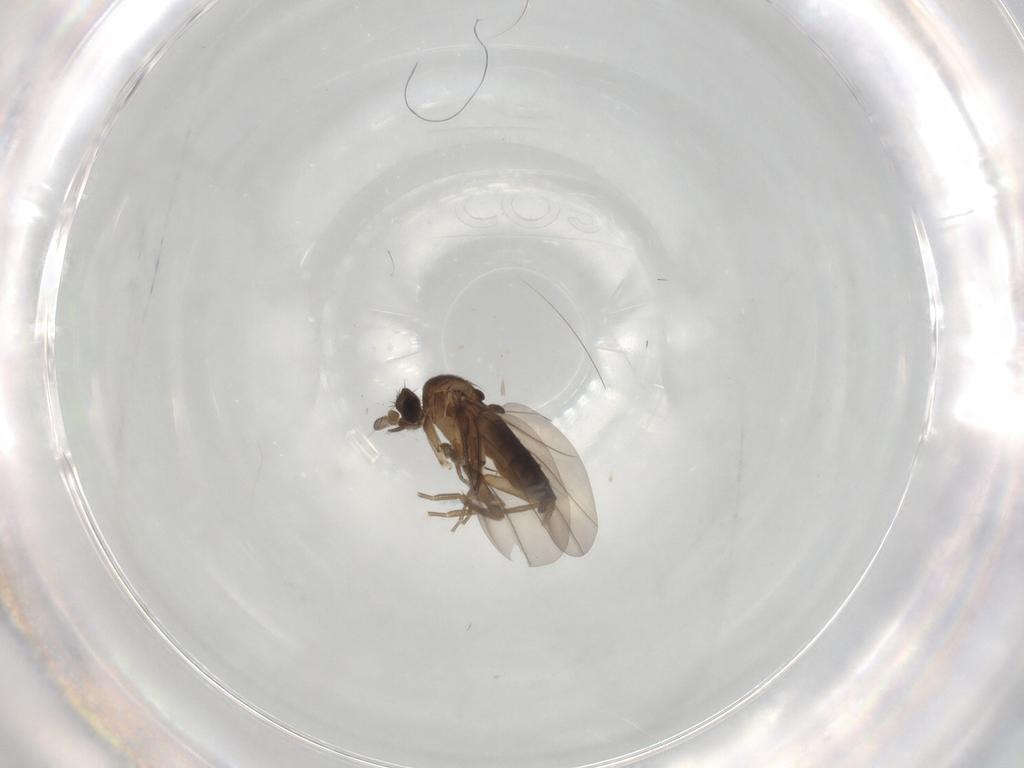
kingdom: Animalia
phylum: Arthropoda
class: Insecta
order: Diptera
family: Phoridae
